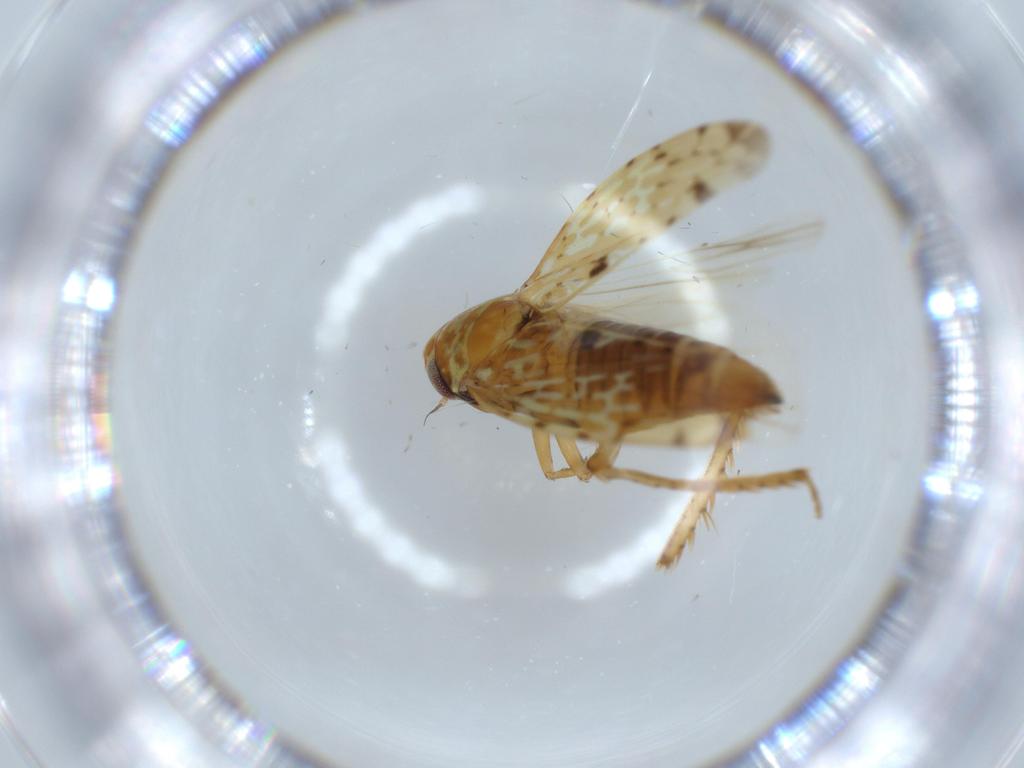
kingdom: Animalia
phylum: Arthropoda
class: Insecta
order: Hemiptera
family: Cicadellidae
